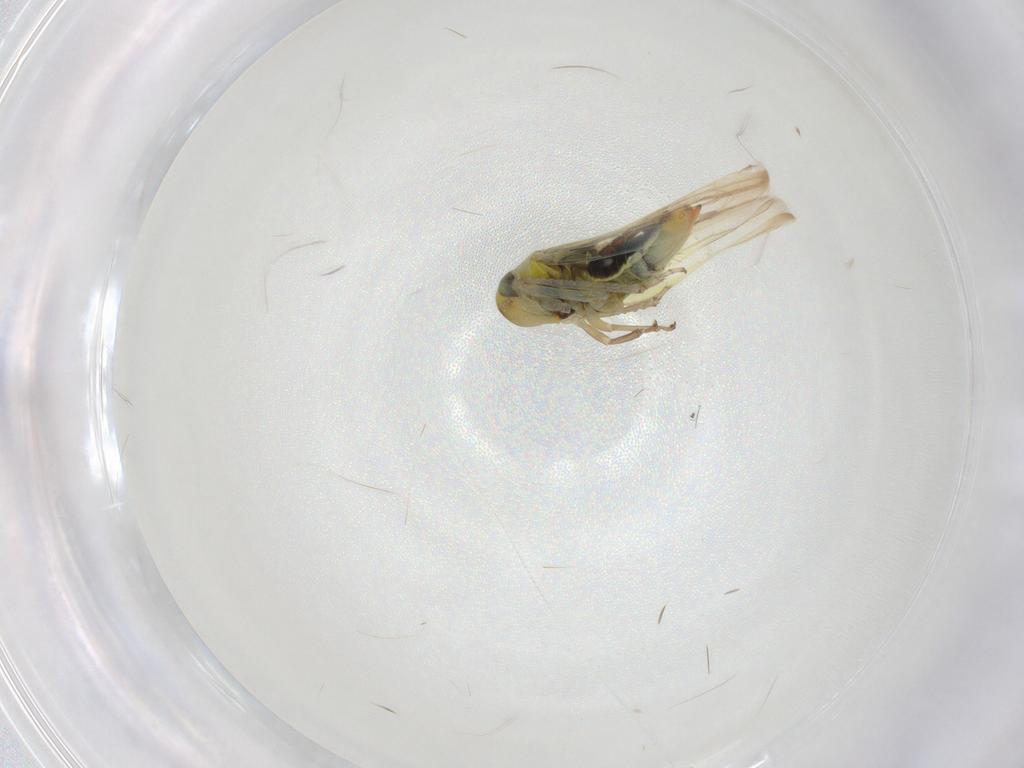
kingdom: Animalia
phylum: Arthropoda
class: Insecta
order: Hemiptera
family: Cicadellidae
